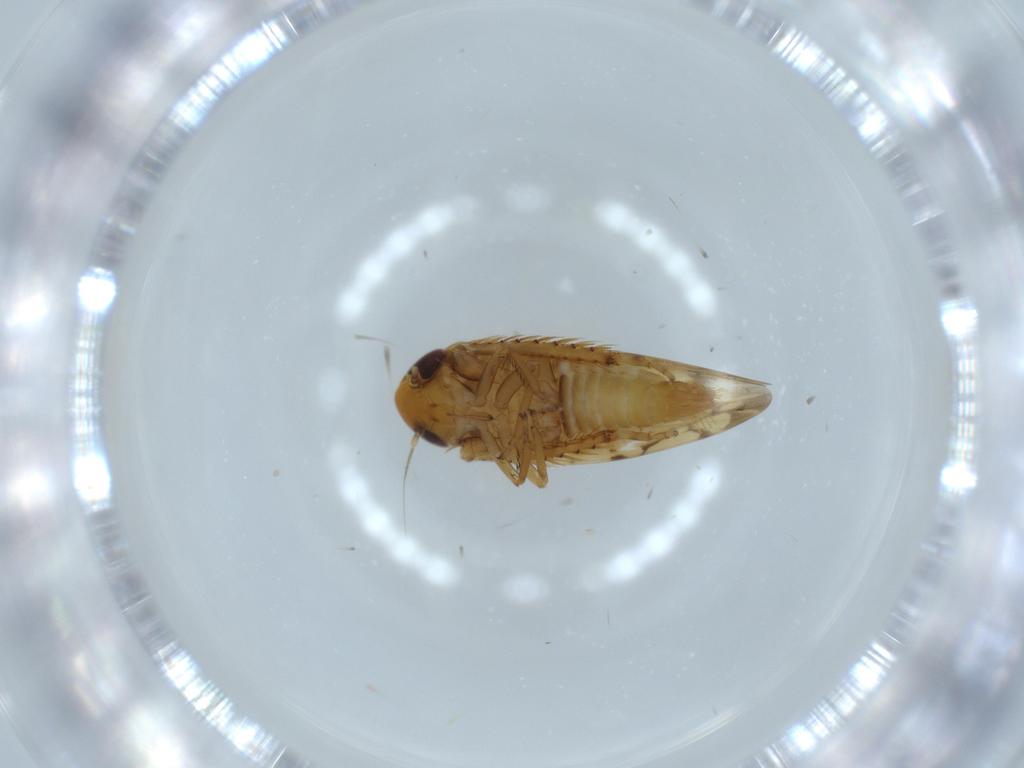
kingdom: Animalia
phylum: Arthropoda
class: Insecta
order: Hemiptera
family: Cicadellidae
